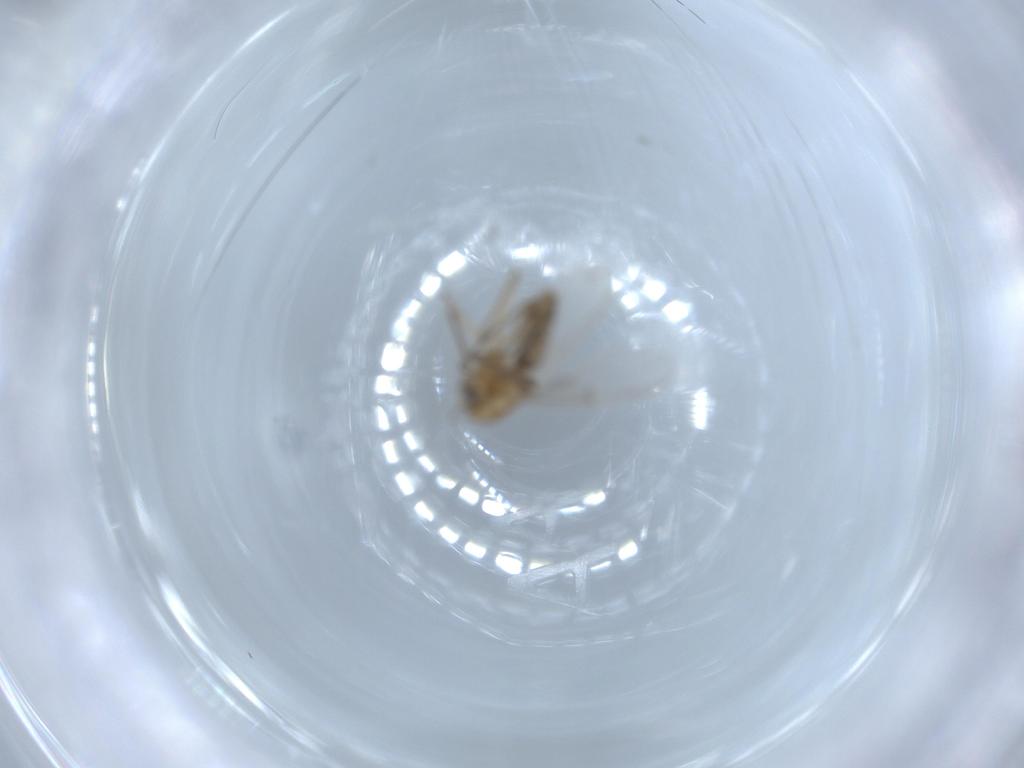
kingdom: Animalia
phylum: Arthropoda
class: Insecta
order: Diptera
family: Chironomidae
